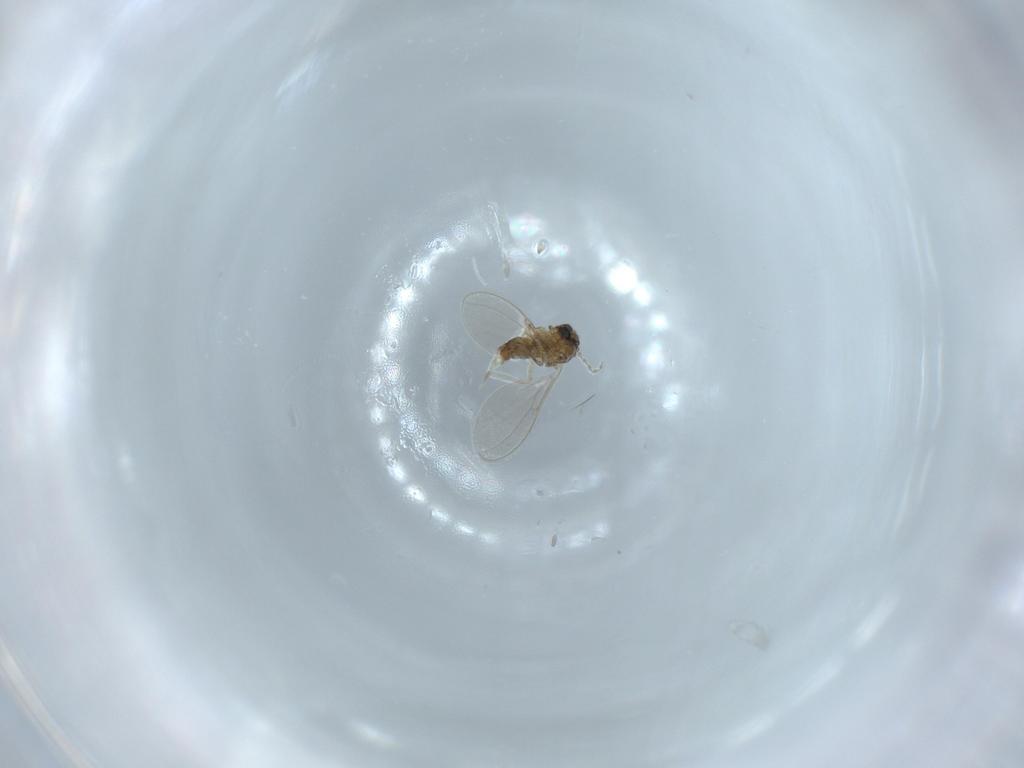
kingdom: Animalia
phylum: Arthropoda
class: Insecta
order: Diptera
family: Cecidomyiidae
